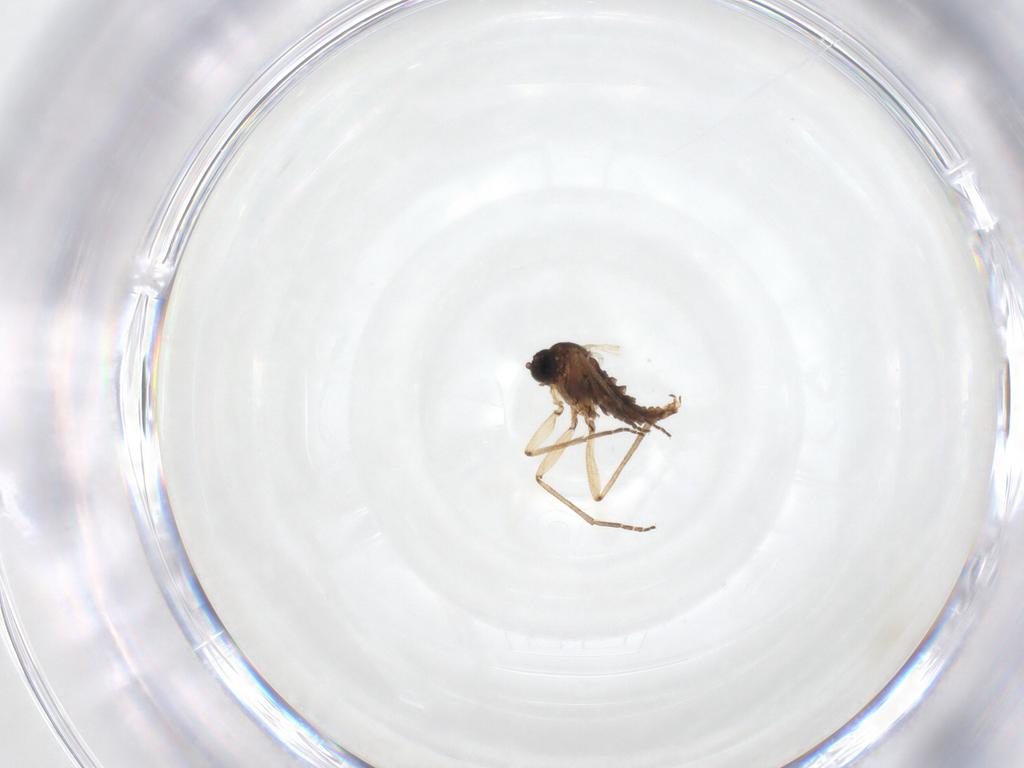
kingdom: Animalia
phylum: Arthropoda
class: Insecta
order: Diptera
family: Sciaridae
